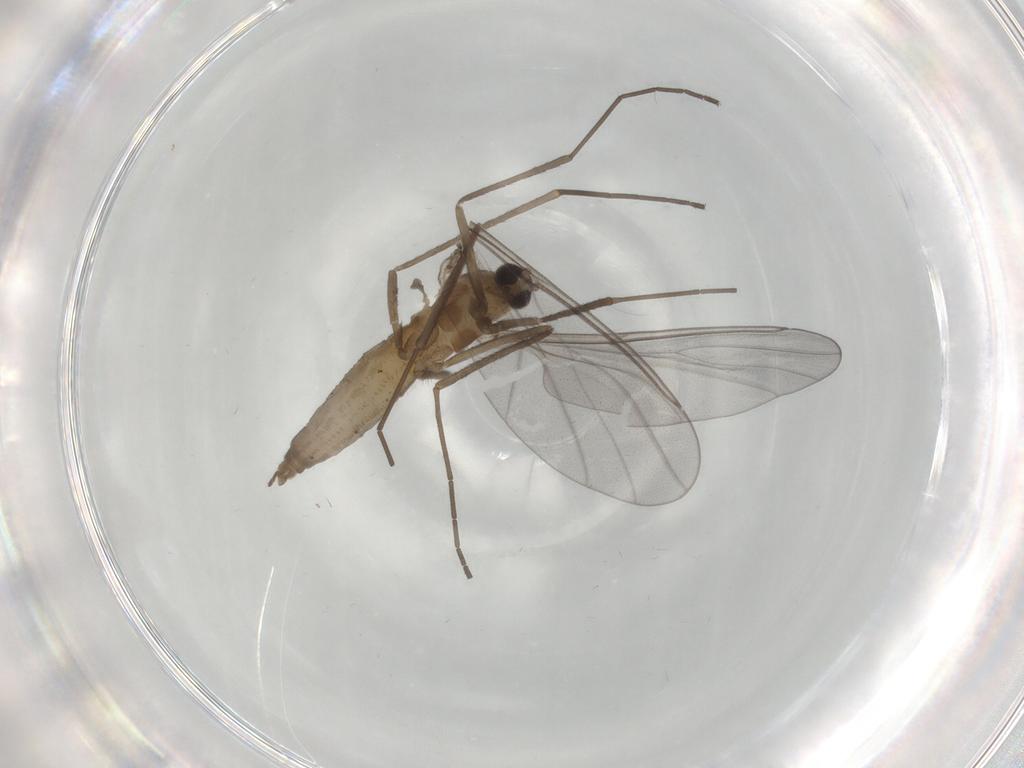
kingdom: Animalia
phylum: Arthropoda
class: Insecta
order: Diptera
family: Cecidomyiidae
